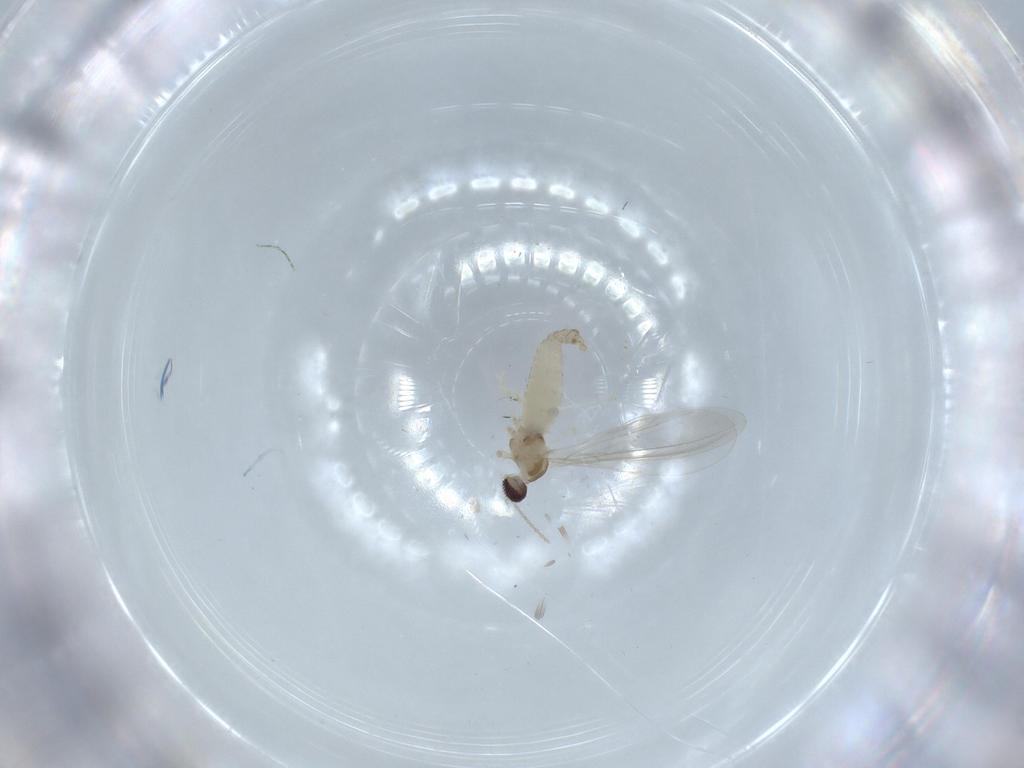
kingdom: Animalia
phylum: Arthropoda
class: Insecta
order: Diptera
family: Cecidomyiidae
